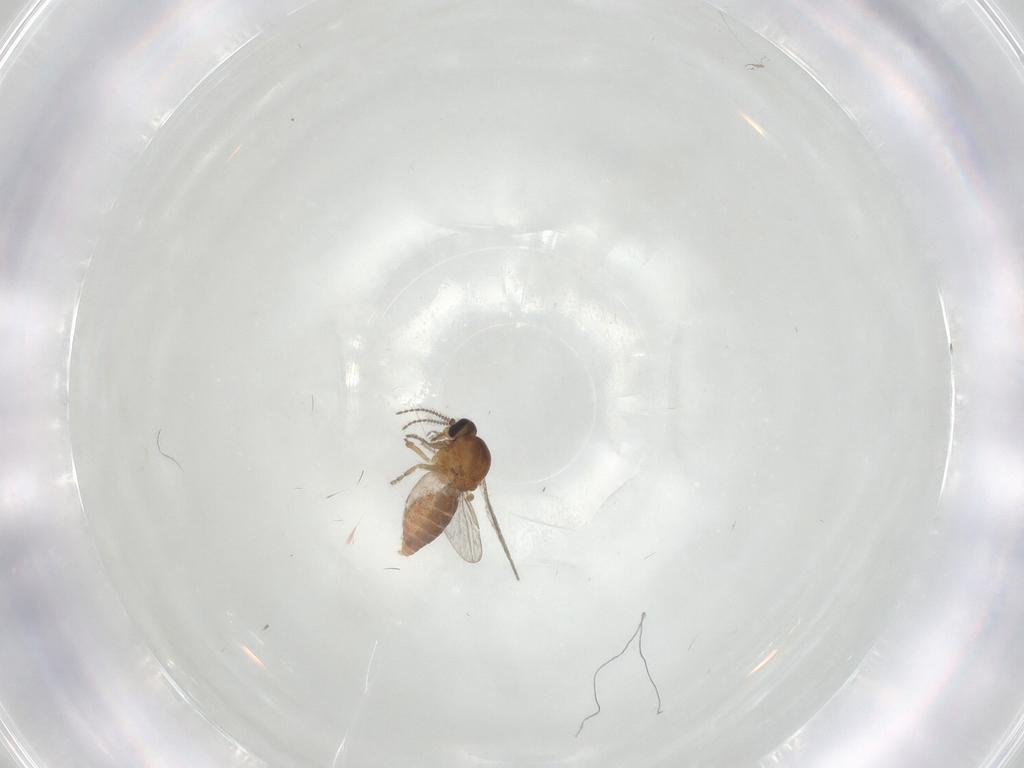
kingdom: Animalia
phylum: Arthropoda
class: Insecta
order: Diptera
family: Ceratopogonidae
